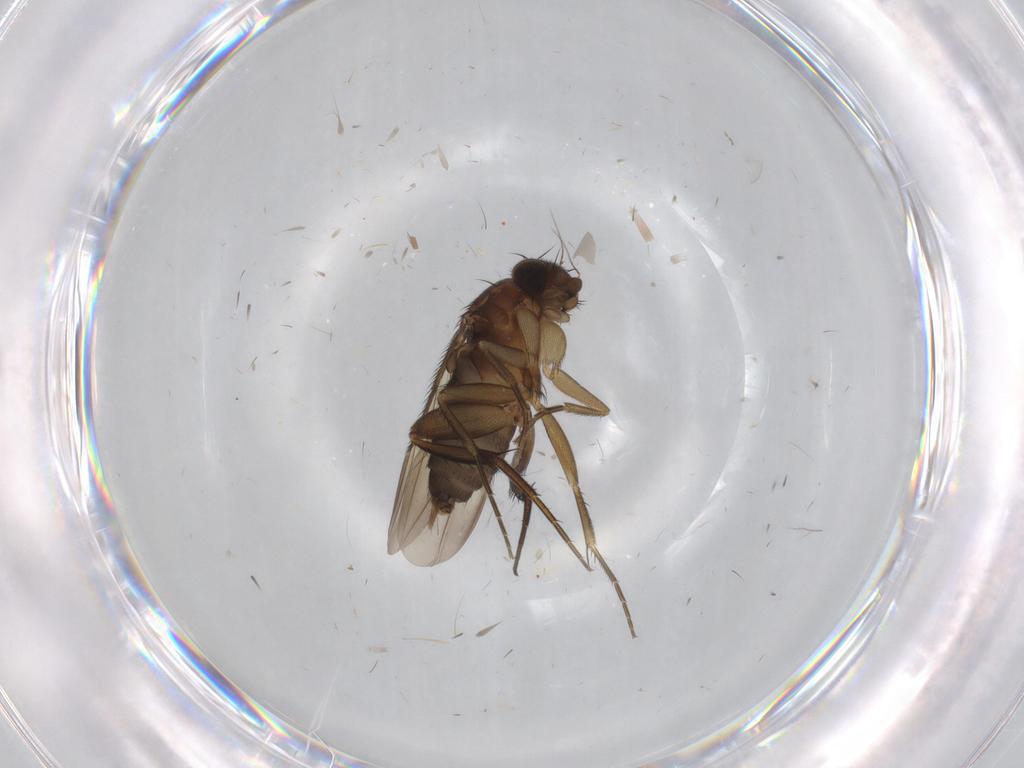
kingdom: Animalia
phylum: Arthropoda
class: Insecta
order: Diptera
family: Phoridae
